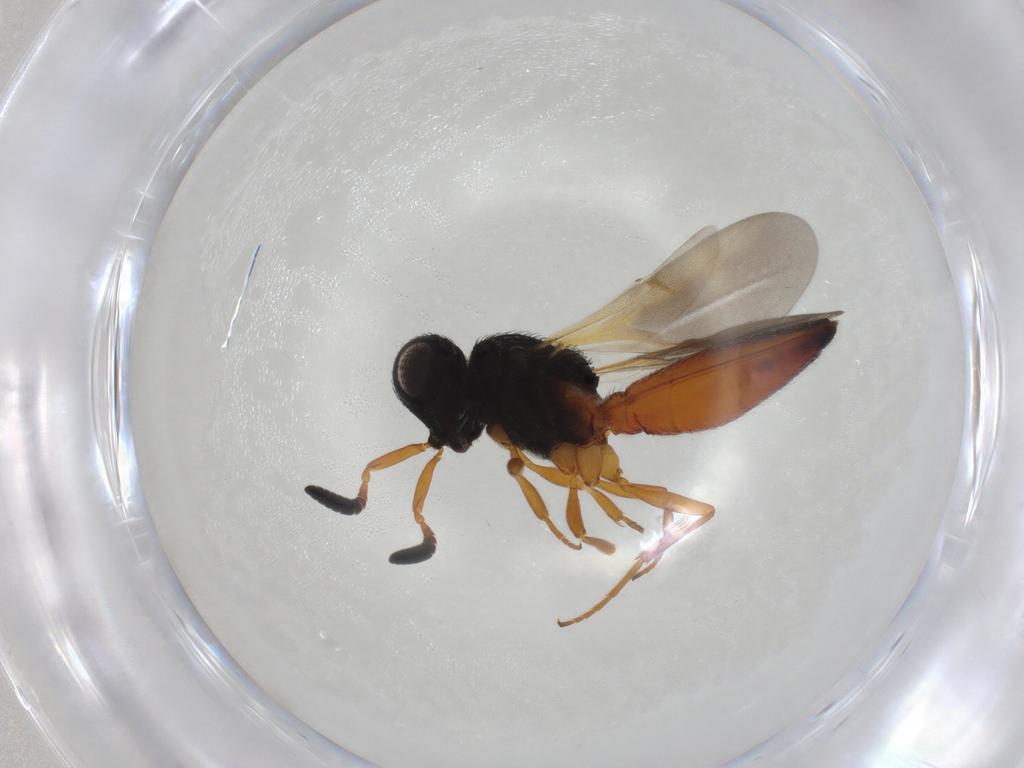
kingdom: Animalia
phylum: Arthropoda
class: Insecta
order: Hymenoptera
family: Scelionidae
